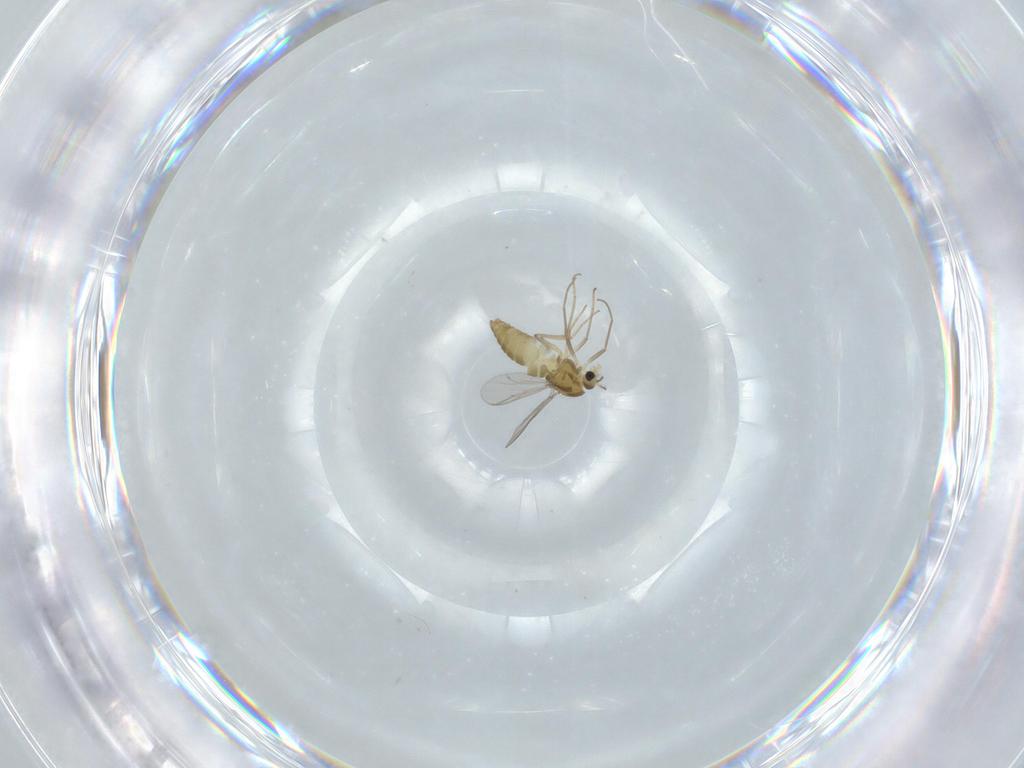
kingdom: Animalia
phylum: Arthropoda
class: Insecta
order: Diptera
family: Chironomidae
